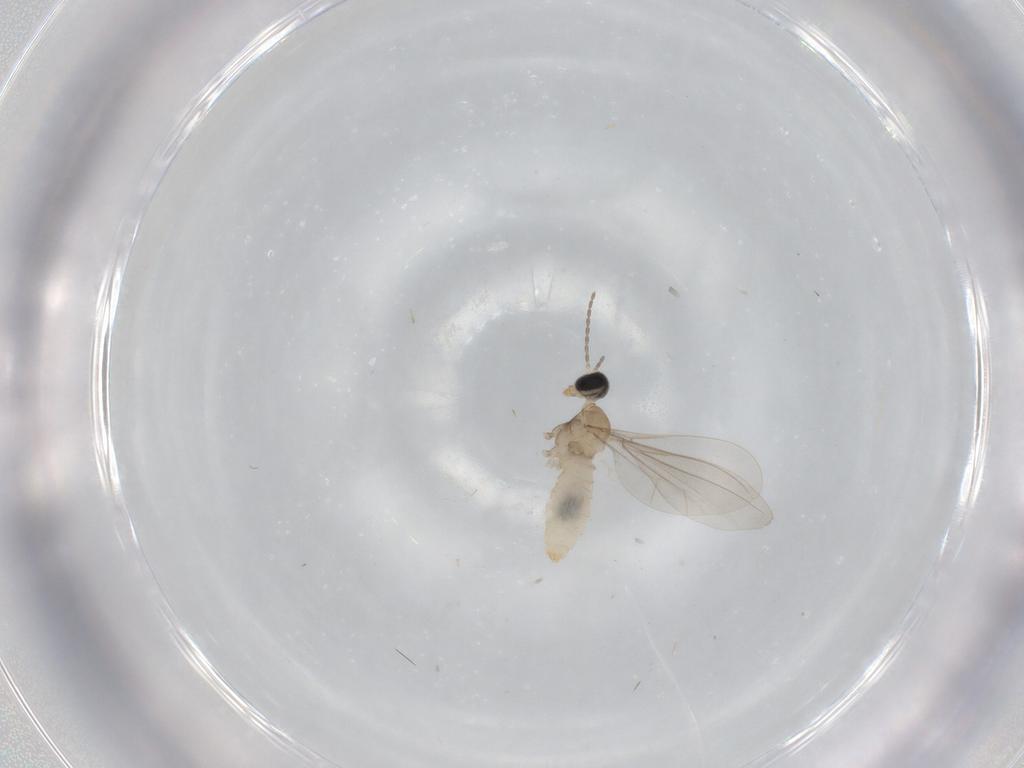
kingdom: Animalia
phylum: Arthropoda
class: Insecta
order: Diptera
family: Cecidomyiidae
